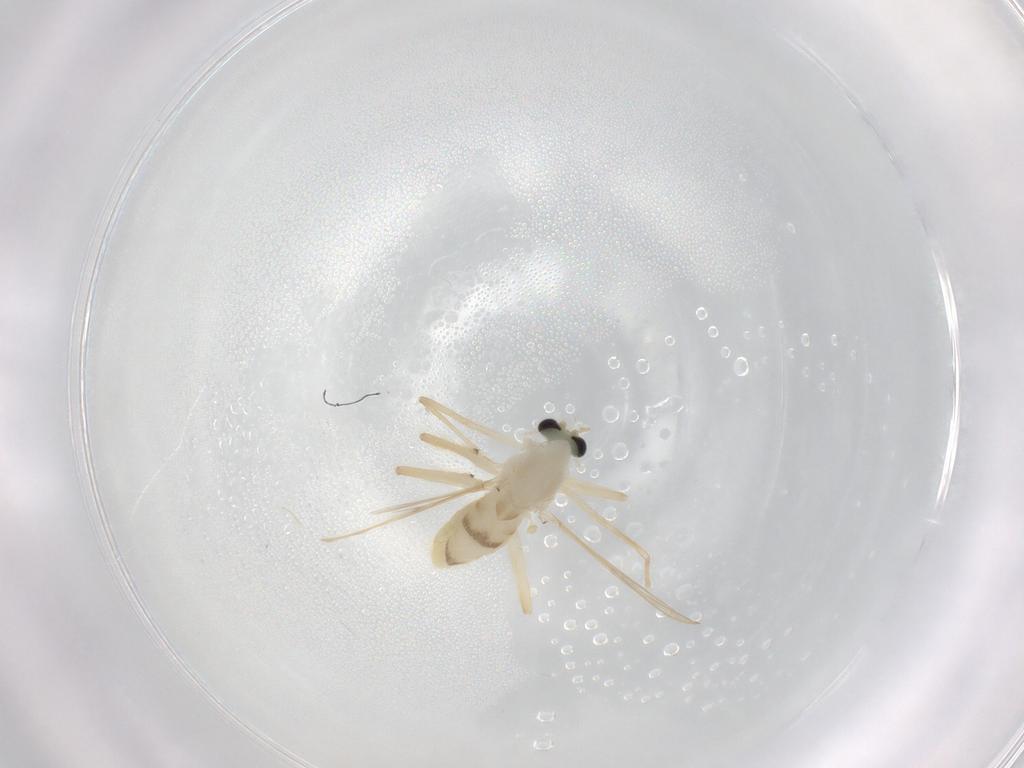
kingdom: Animalia
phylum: Arthropoda
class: Insecta
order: Diptera
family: Chironomidae
